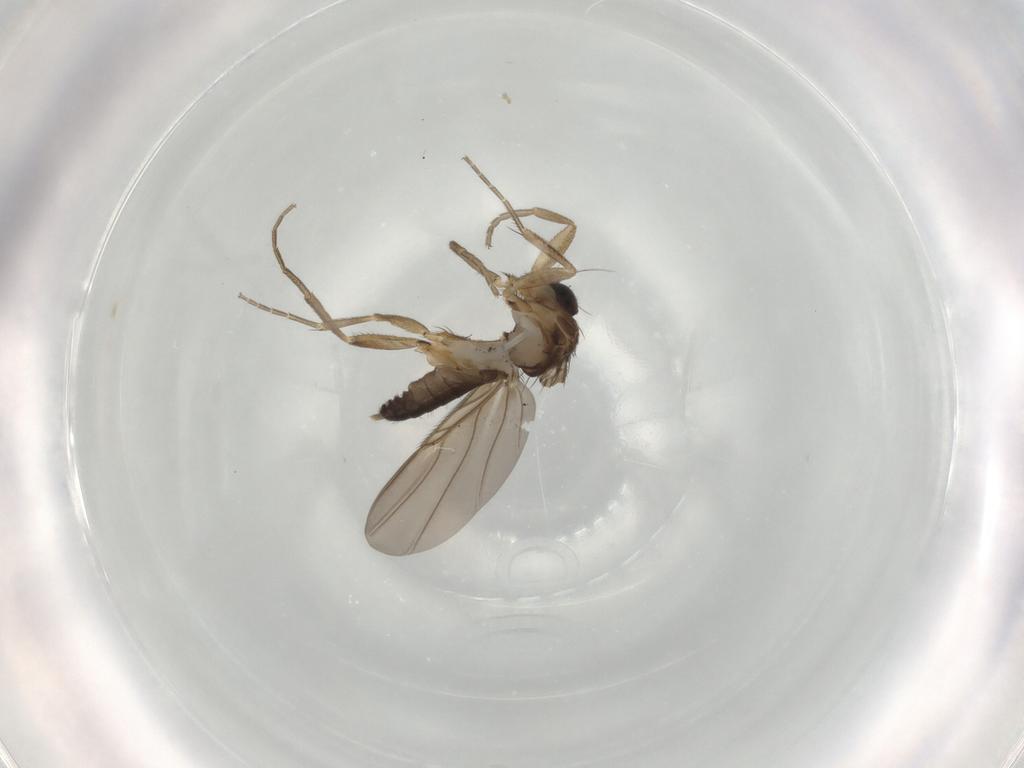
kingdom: Animalia
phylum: Arthropoda
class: Insecta
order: Diptera
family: Phoridae
